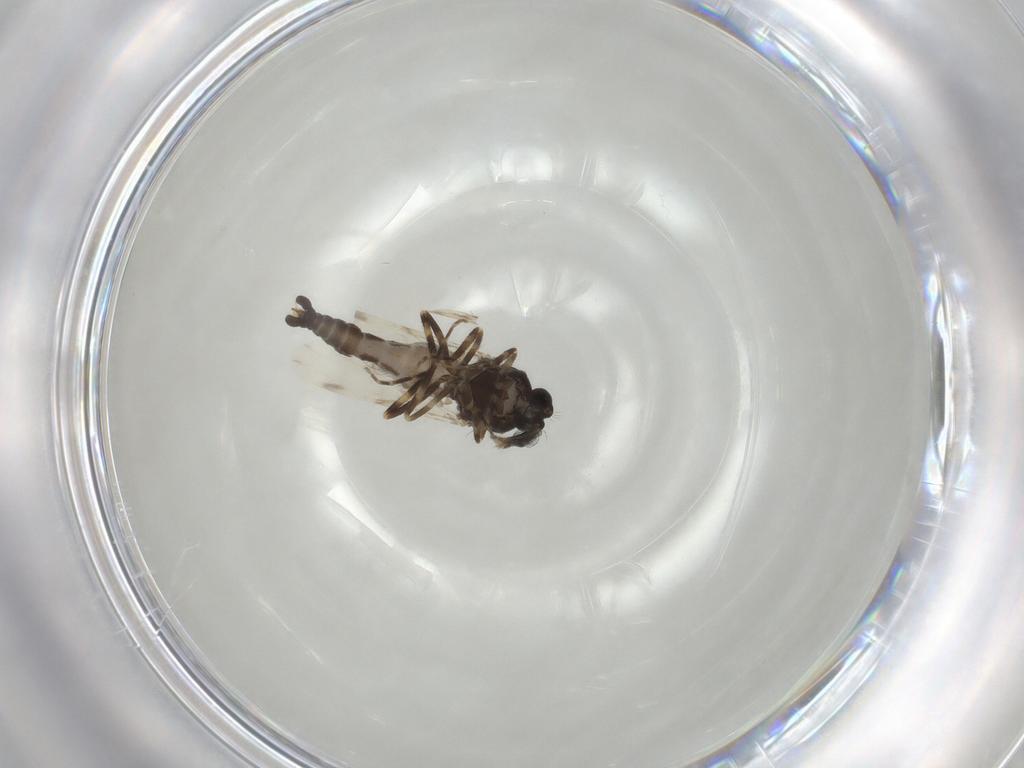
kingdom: Animalia
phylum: Arthropoda
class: Insecta
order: Diptera
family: Ceratopogonidae
